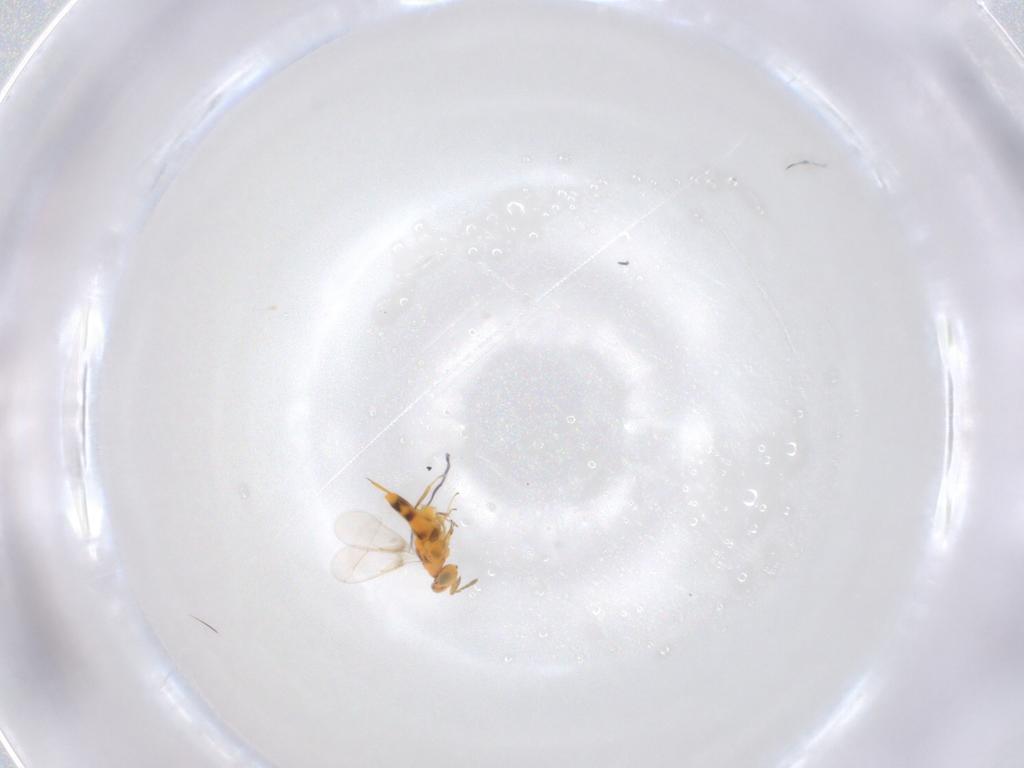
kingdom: Animalia
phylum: Arthropoda
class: Insecta
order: Hymenoptera
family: Aphelinidae
